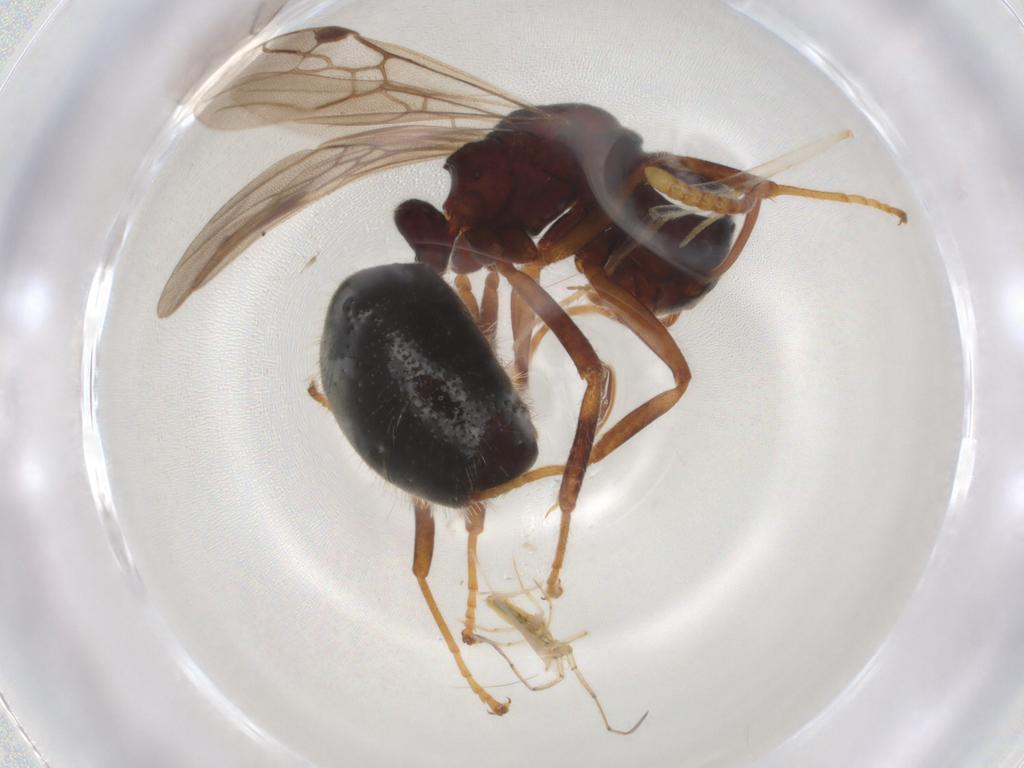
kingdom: Animalia
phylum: Arthropoda
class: Insecta
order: Hymenoptera
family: Formicidae
